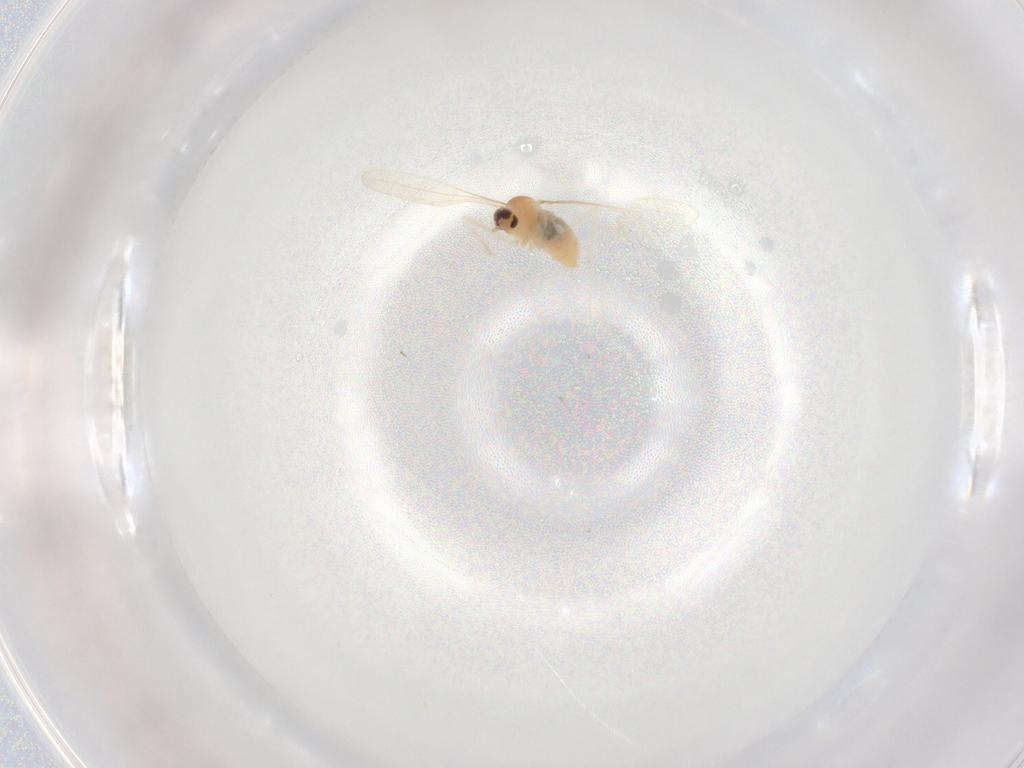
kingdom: Animalia
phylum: Arthropoda
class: Insecta
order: Diptera
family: Cecidomyiidae
